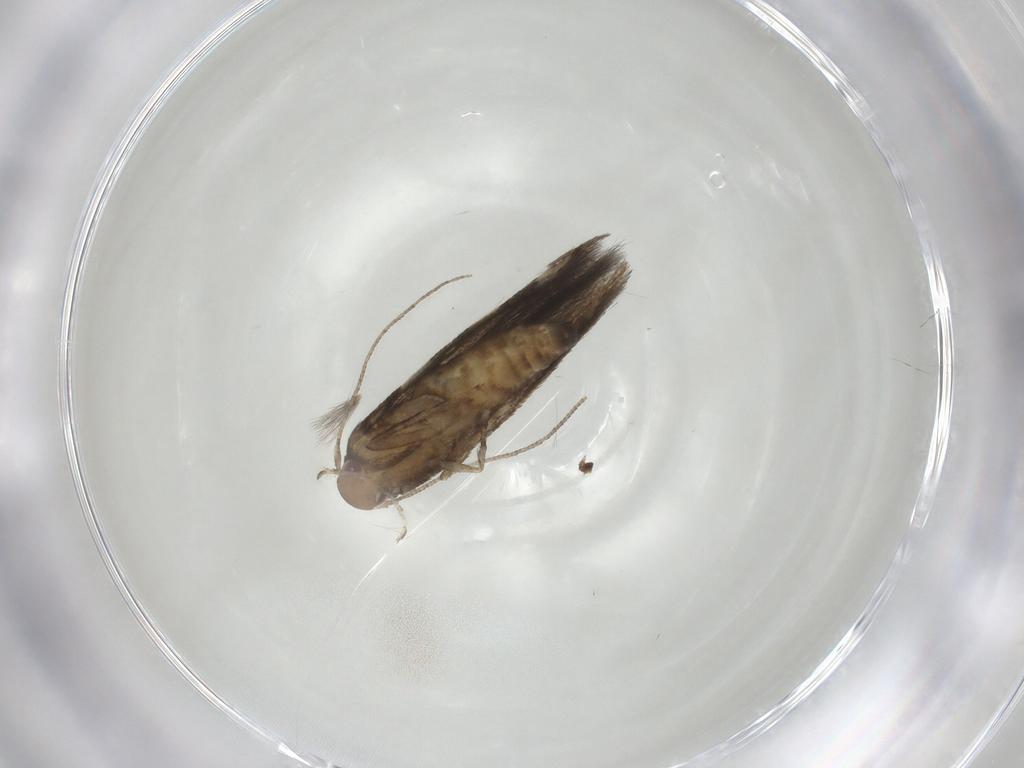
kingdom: Animalia
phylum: Arthropoda
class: Insecta
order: Lepidoptera
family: Gelechiidae
